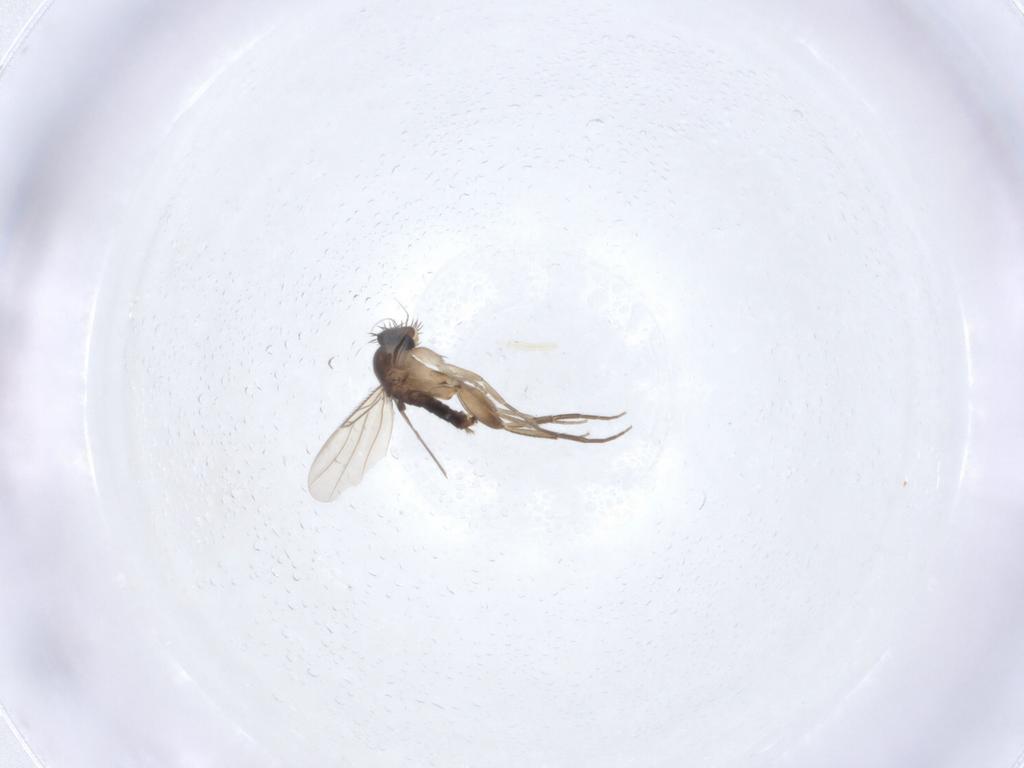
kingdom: Animalia
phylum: Arthropoda
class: Insecta
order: Diptera
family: Phoridae
